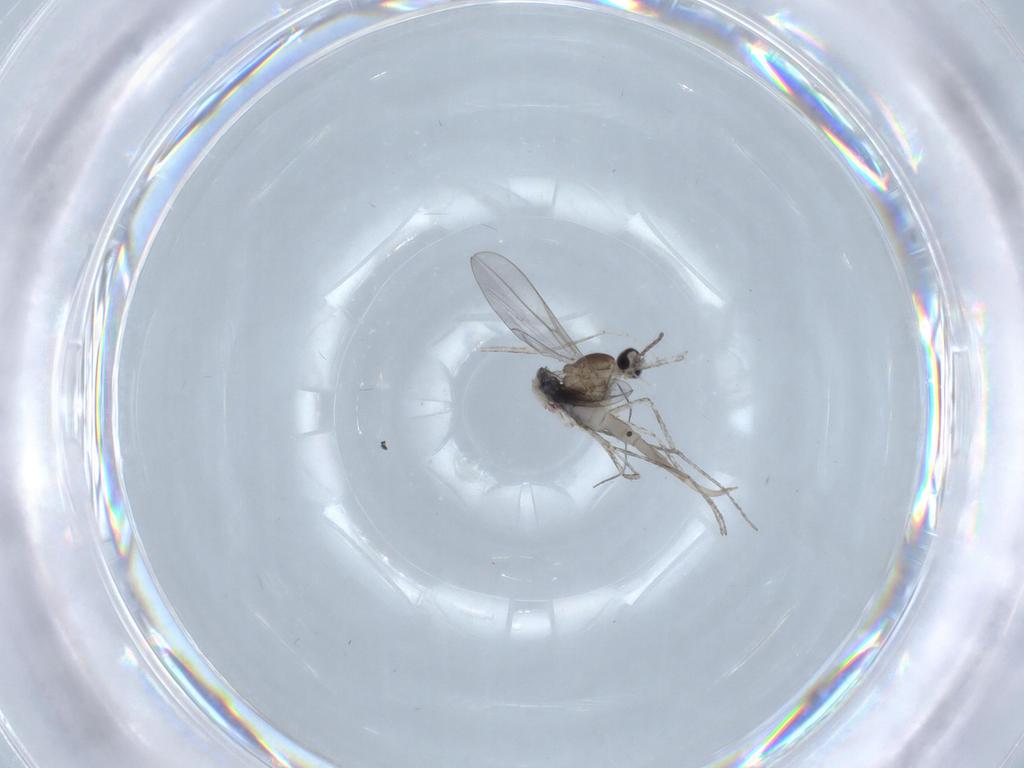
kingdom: Animalia
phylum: Arthropoda
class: Insecta
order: Diptera
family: Cecidomyiidae
